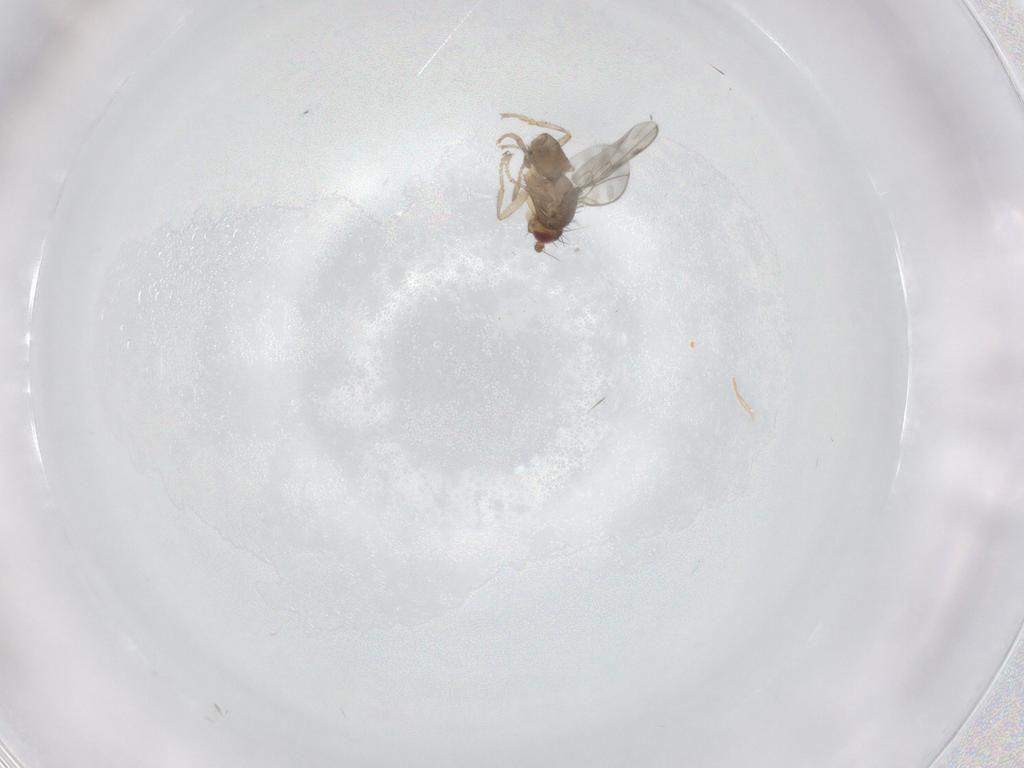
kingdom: Animalia
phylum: Arthropoda
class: Insecta
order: Diptera
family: Sphaeroceridae
